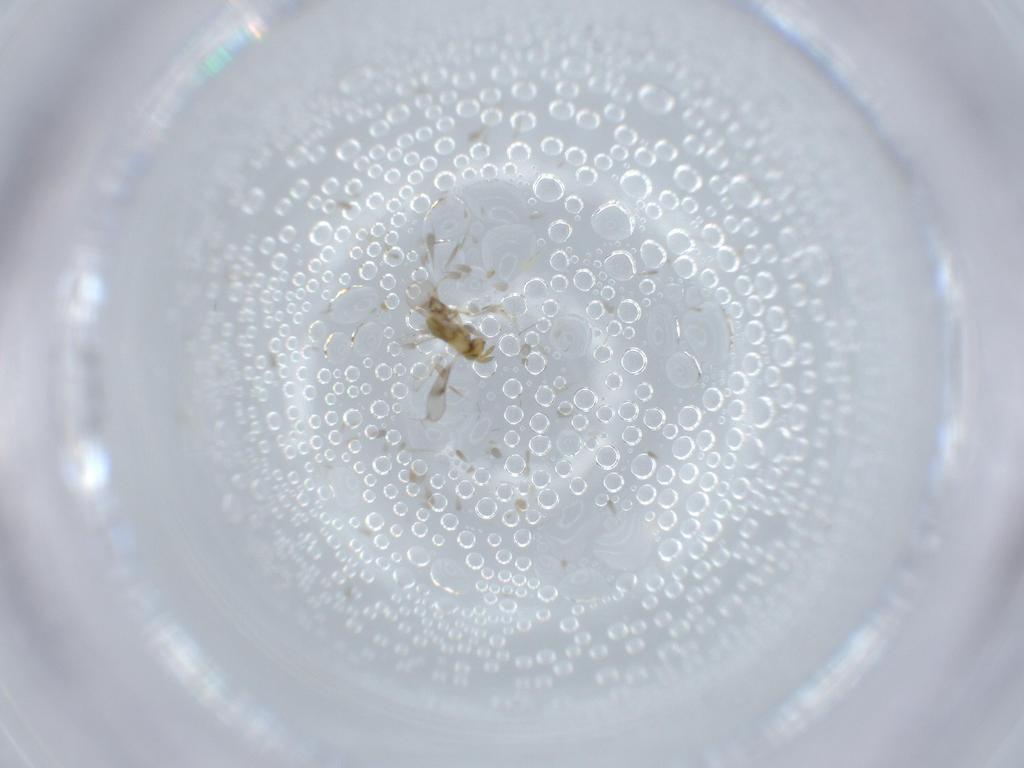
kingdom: Animalia
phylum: Arthropoda
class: Insecta
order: Hymenoptera
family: Aphelinidae
